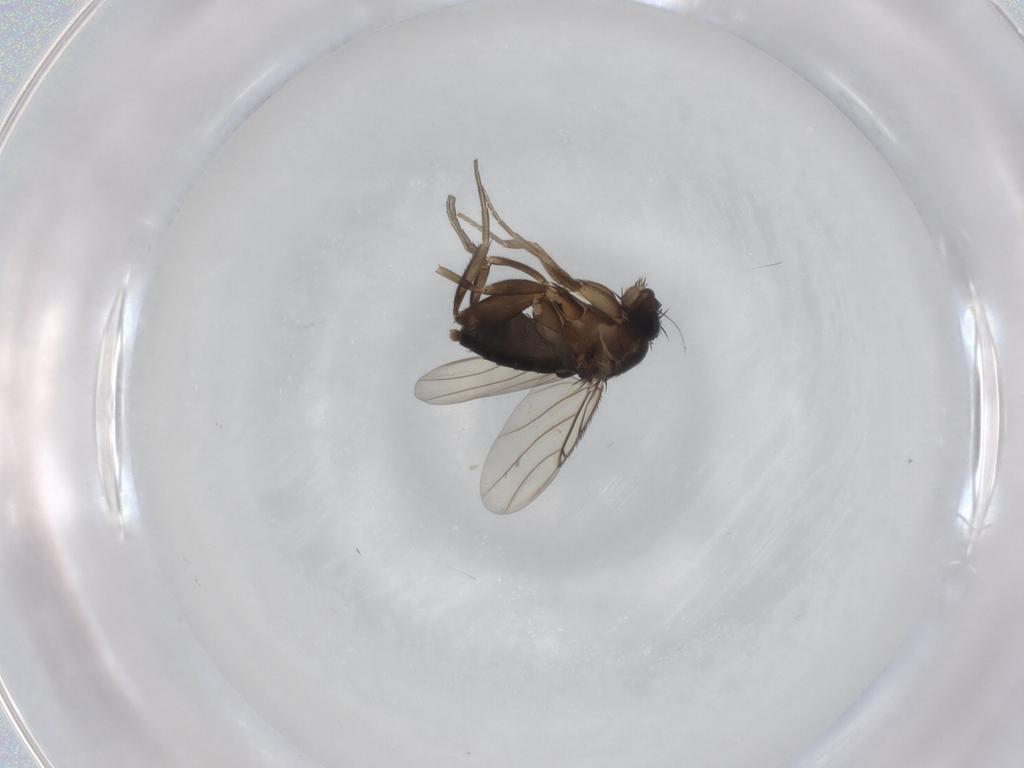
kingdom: Animalia
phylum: Arthropoda
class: Insecta
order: Diptera
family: Phoridae
